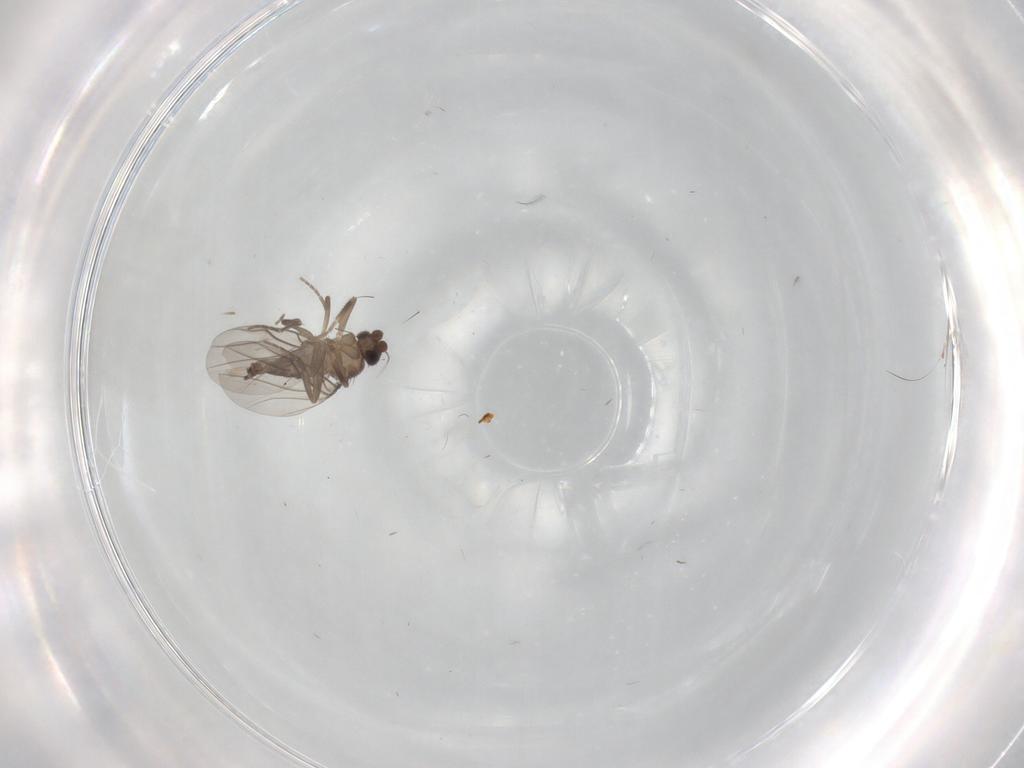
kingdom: Animalia
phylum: Arthropoda
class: Insecta
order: Diptera
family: Phoridae
